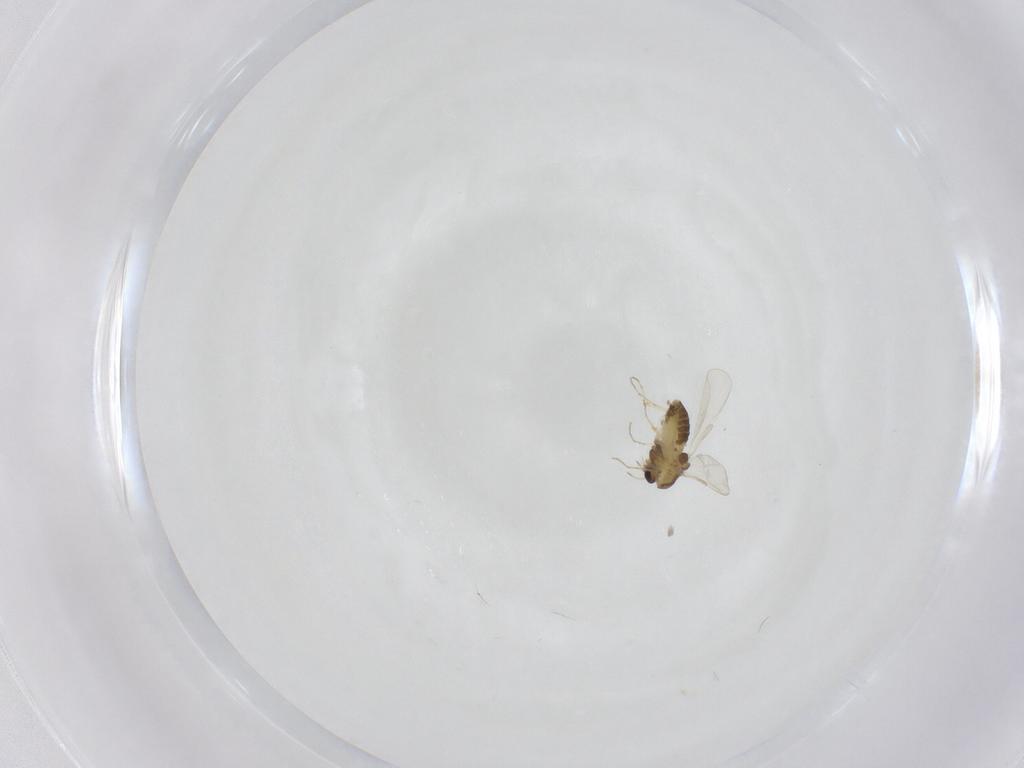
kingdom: Animalia
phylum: Arthropoda
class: Insecta
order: Diptera
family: Chironomidae
